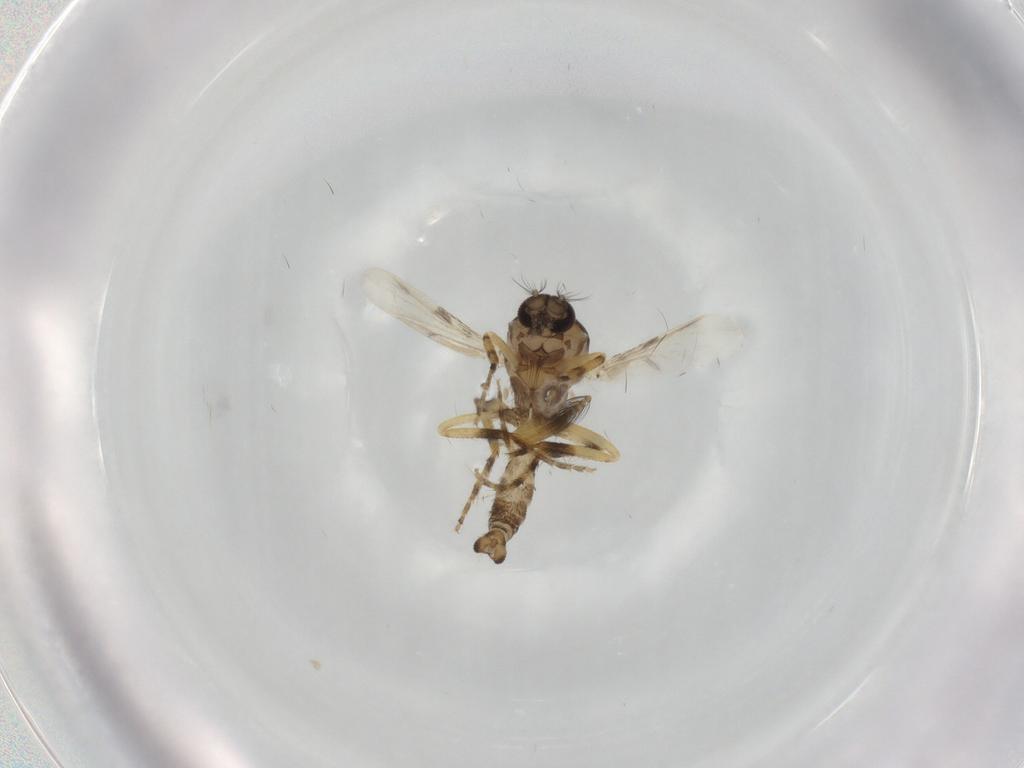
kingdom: Animalia
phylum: Arthropoda
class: Insecta
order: Diptera
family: Ceratopogonidae
